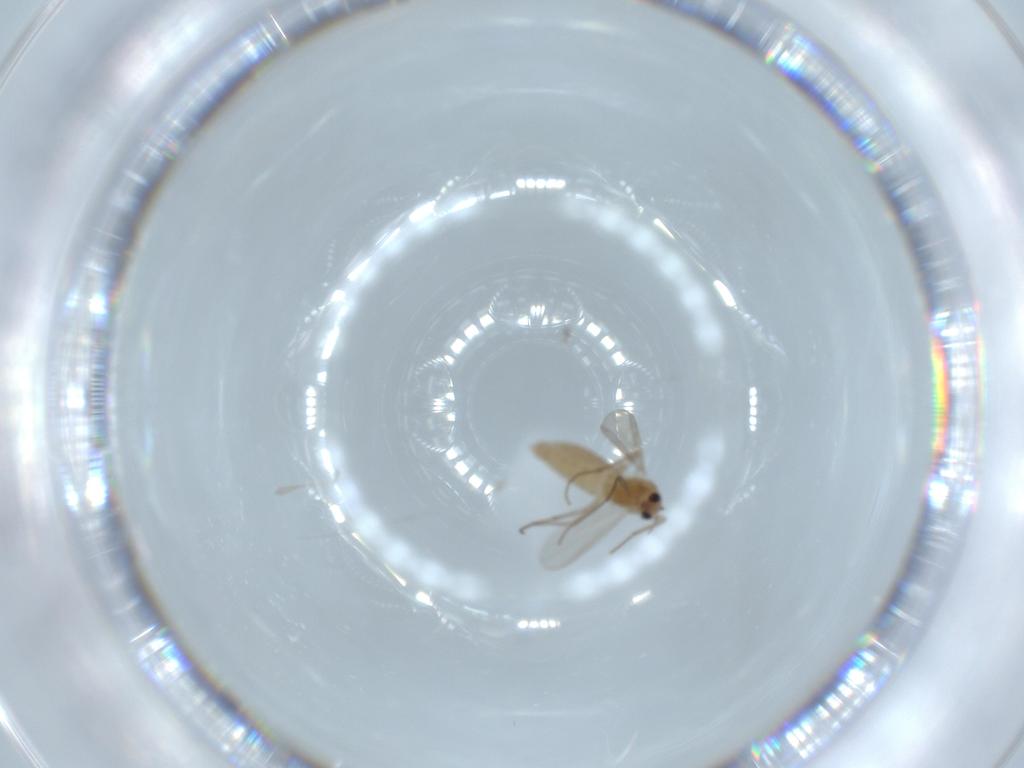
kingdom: Animalia
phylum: Arthropoda
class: Insecta
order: Diptera
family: Chironomidae
